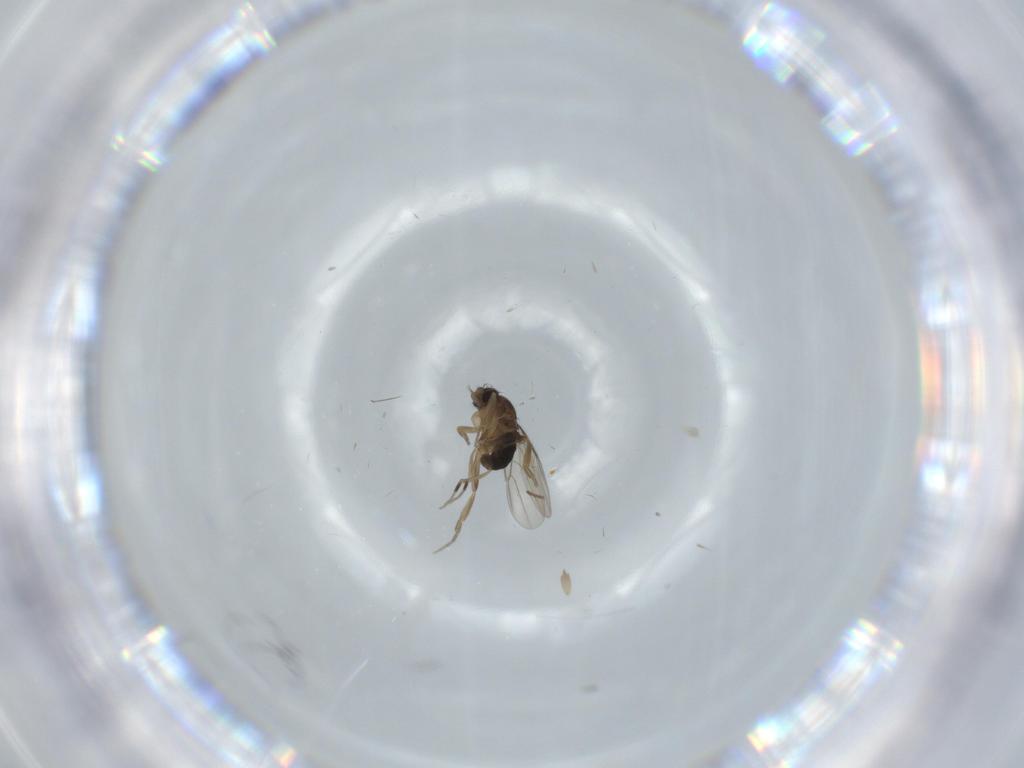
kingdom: Animalia
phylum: Arthropoda
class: Insecta
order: Diptera
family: Phoridae
